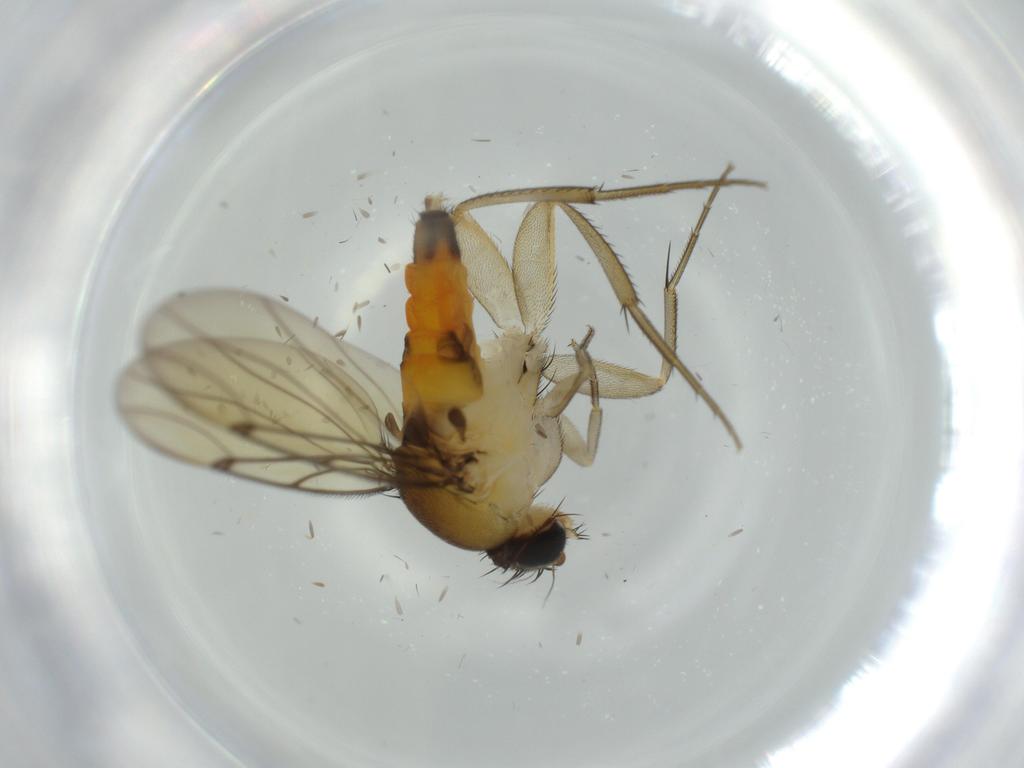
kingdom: Animalia
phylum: Arthropoda
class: Insecta
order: Diptera
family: Phoridae
